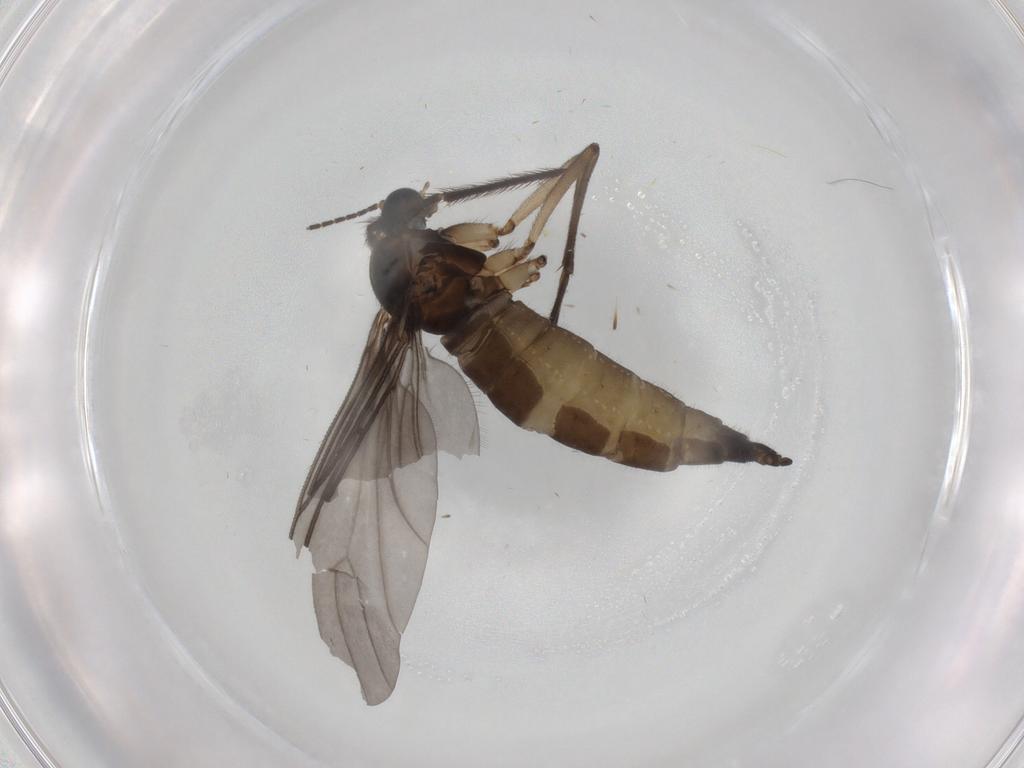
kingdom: Animalia
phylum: Arthropoda
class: Insecta
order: Diptera
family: Sciaridae
